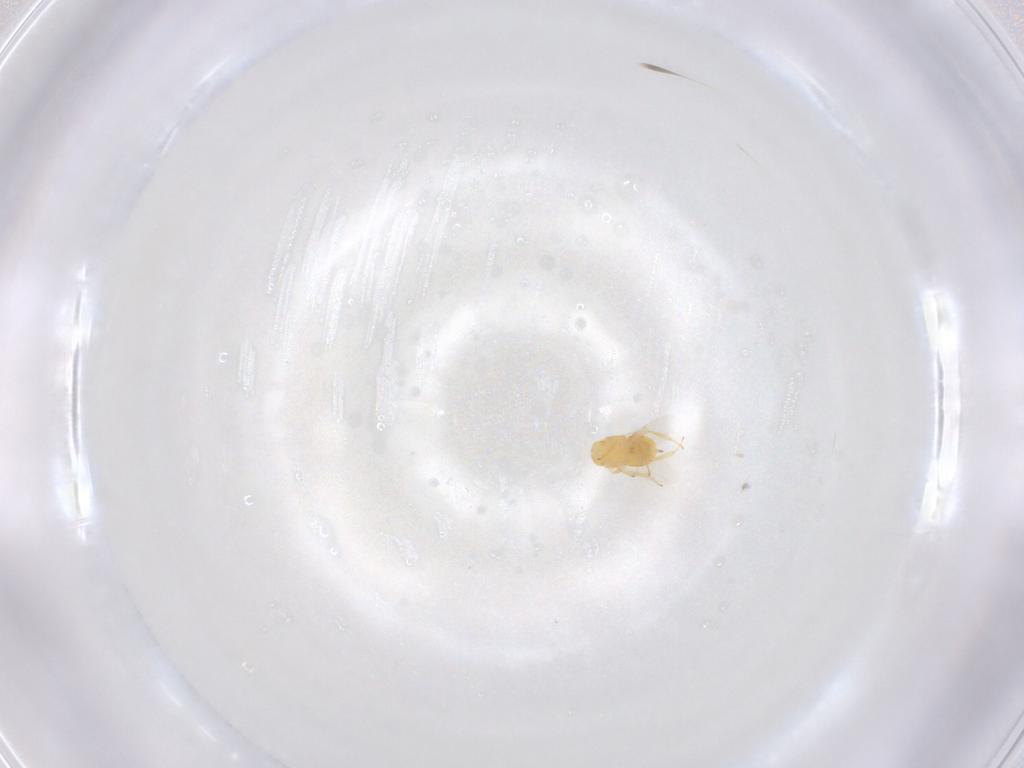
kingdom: Animalia
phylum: Arthropoda
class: Insecta
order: Hymenoptera
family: Encyrtidae
